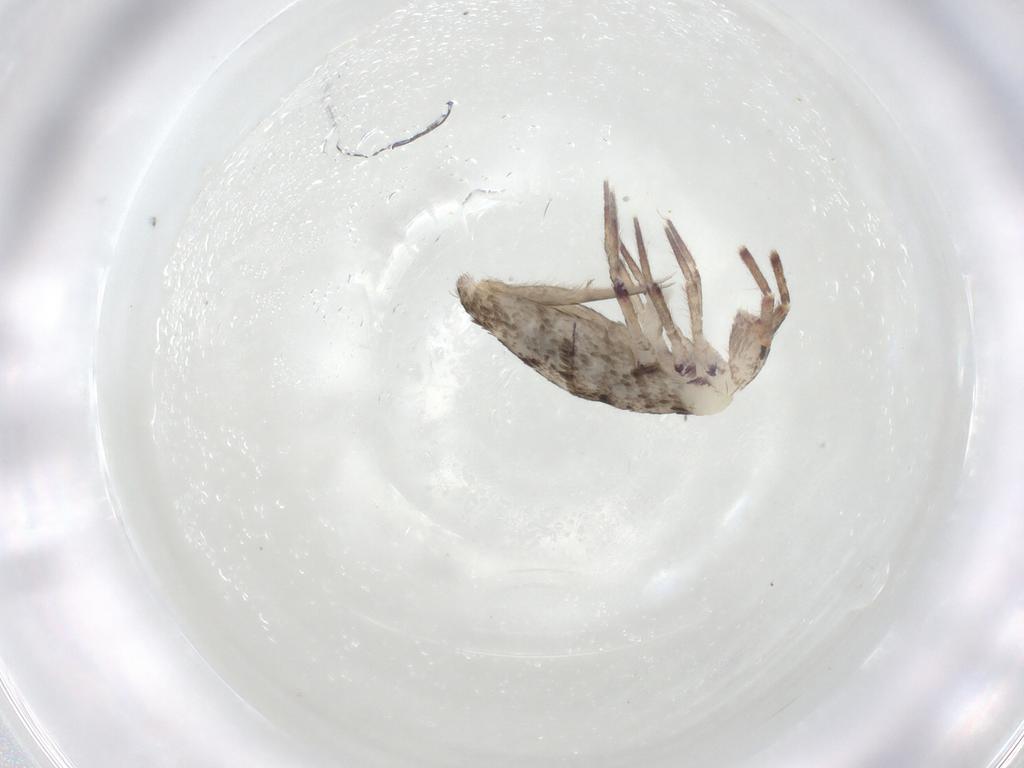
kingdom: Animalia
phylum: Arthropoda
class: Collembola
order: Entomobryomorpha
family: Entomobryidae
